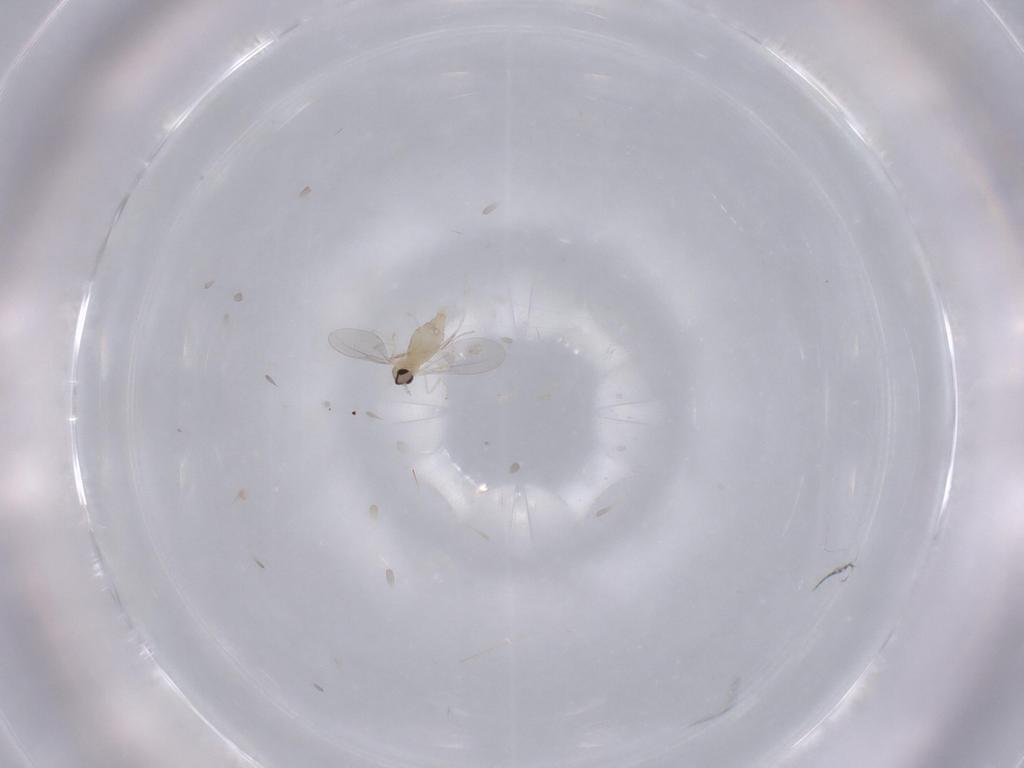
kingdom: Animalia
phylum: Arthropoda
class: Insecta
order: Diptera
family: Cecidomyiidae
